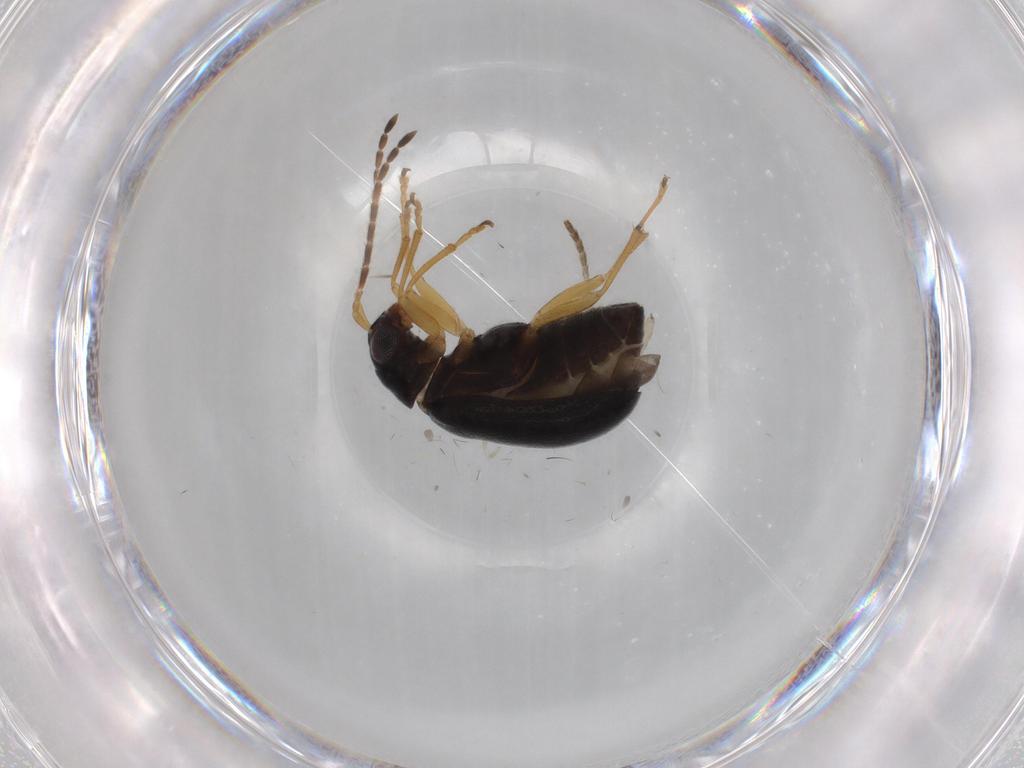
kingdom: Animalia
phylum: Arthropoda
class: Insecta
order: Coleoptera
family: Chrysomelidae
